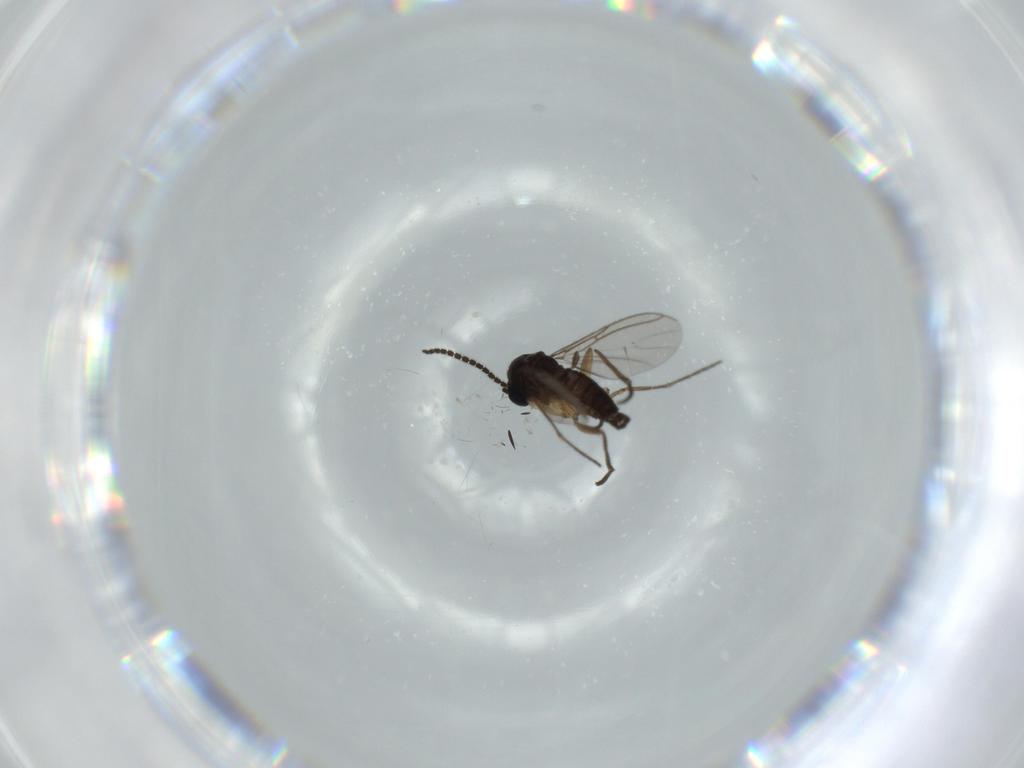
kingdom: Animalia
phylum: Arthropoda
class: Insecta
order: Diptera
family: Sciaridae
